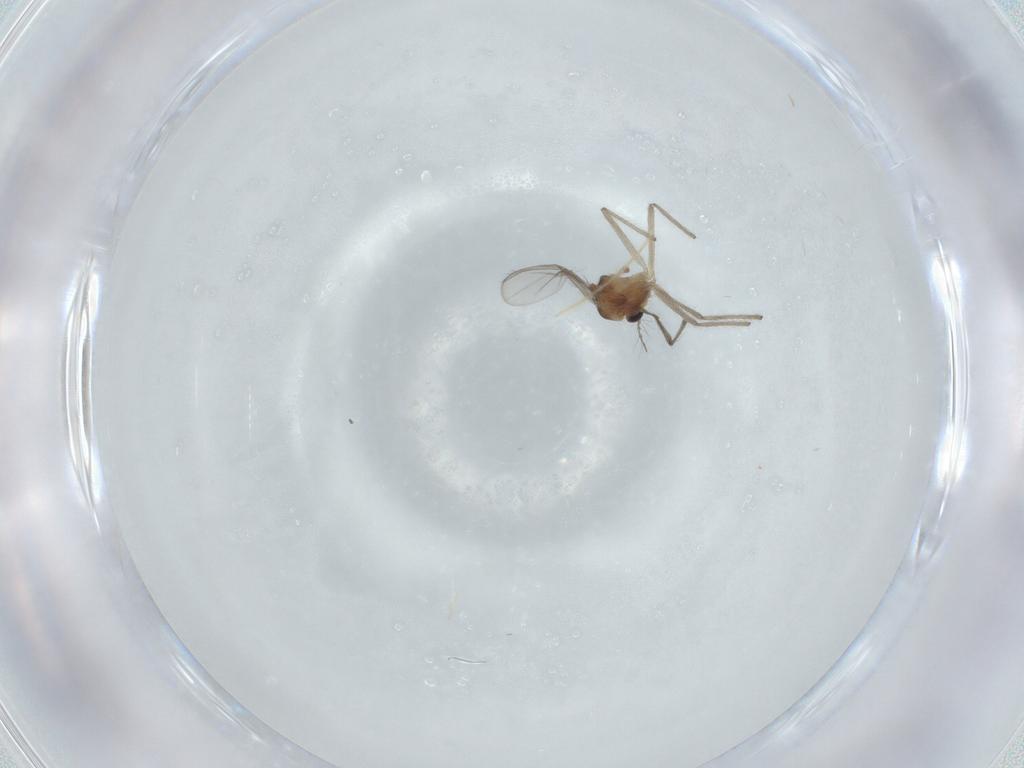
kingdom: Animalia
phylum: Arthropoda
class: Insecta
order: Diptera
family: Chironomidae
